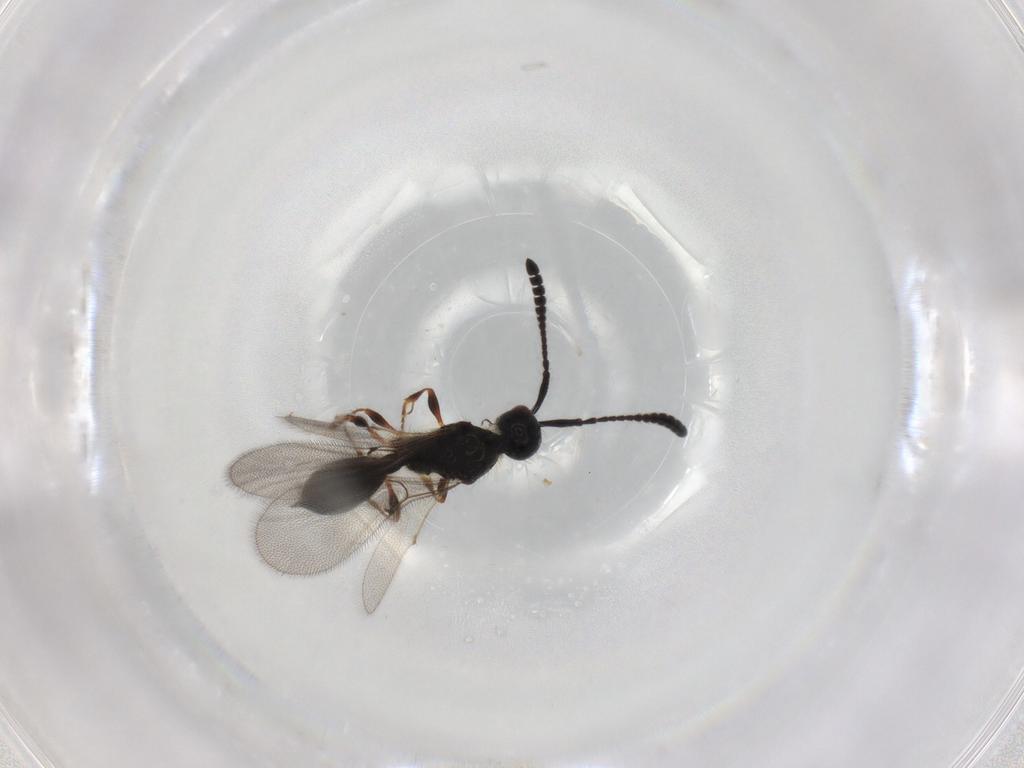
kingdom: Animalia
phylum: Arthropoda
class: Insecta
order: Hymenoptera
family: Diapriidae
